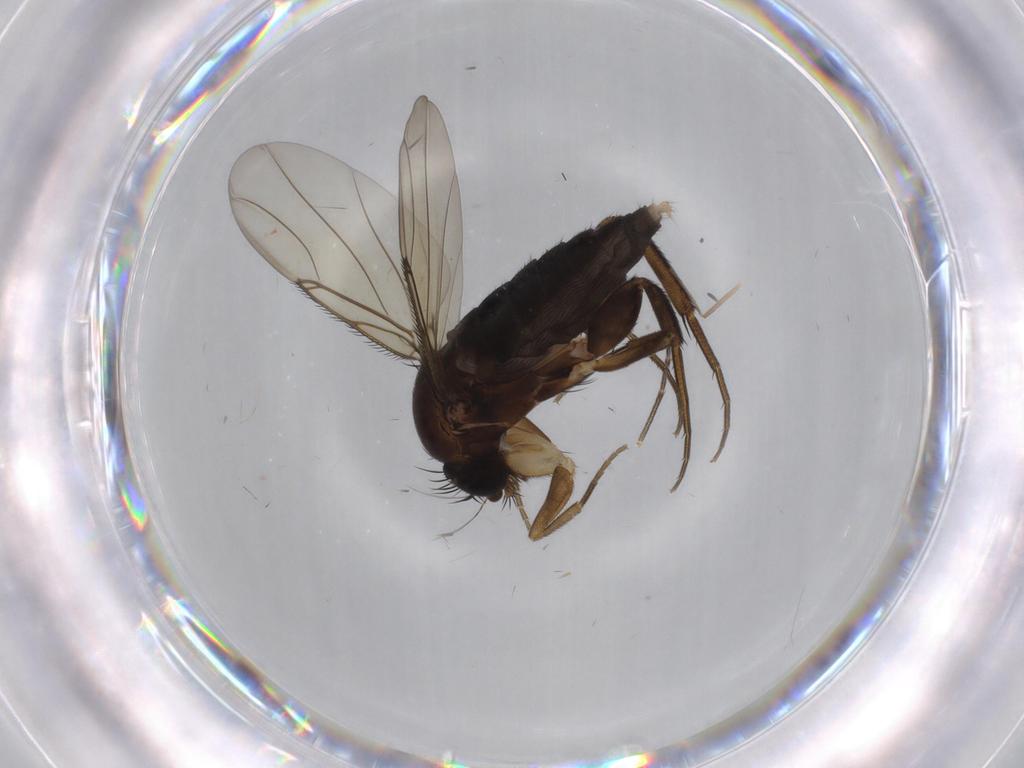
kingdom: Animalia
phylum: Arthropoda
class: Insecta
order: Diptera
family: Phoridae
